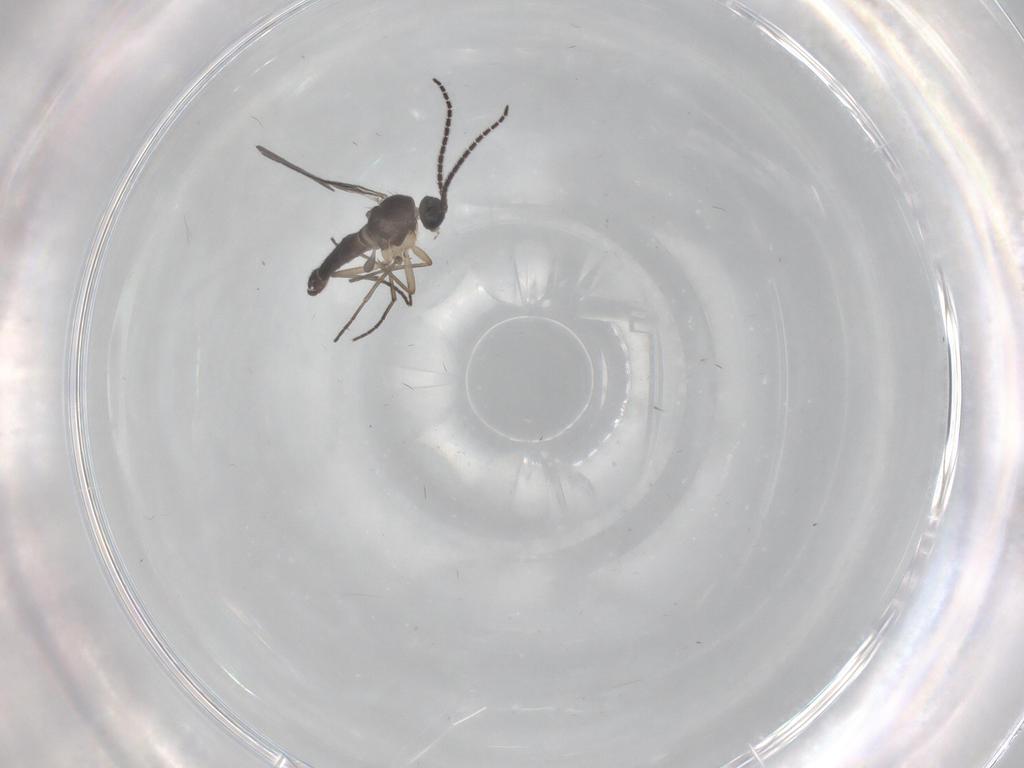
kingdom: Animalia
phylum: Arthropoda
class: Insecta
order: Diptera
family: Sciaridae
